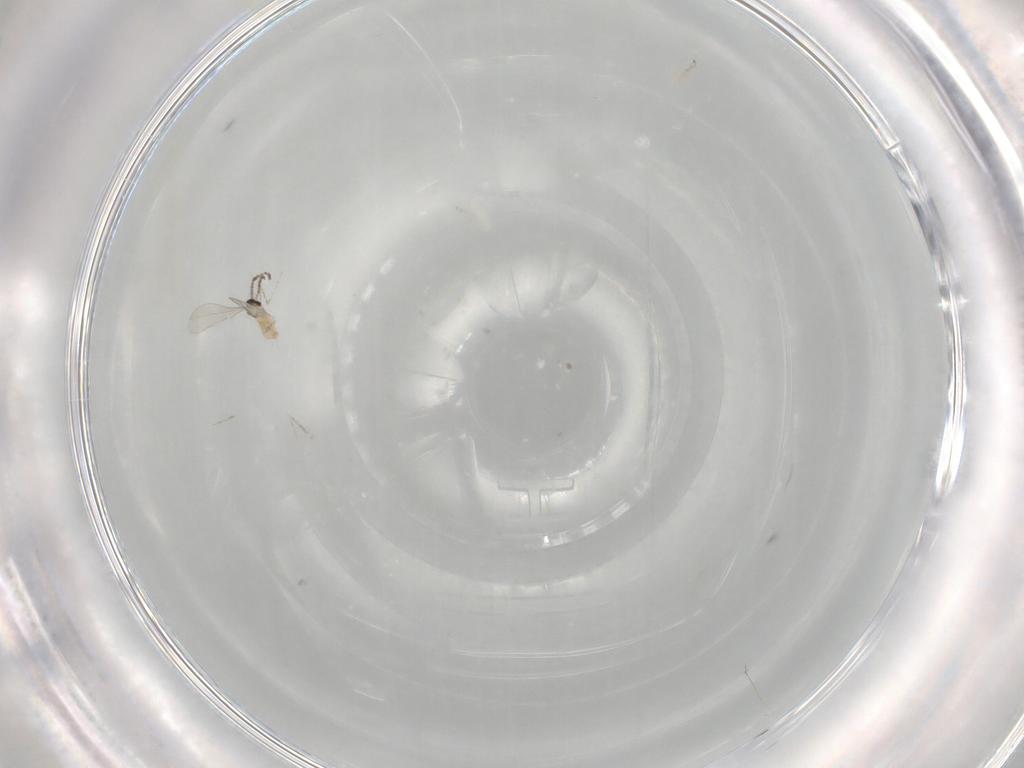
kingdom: Animalia
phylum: Arthropoda
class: Insecta
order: Diptera
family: Cecidomyiidae
